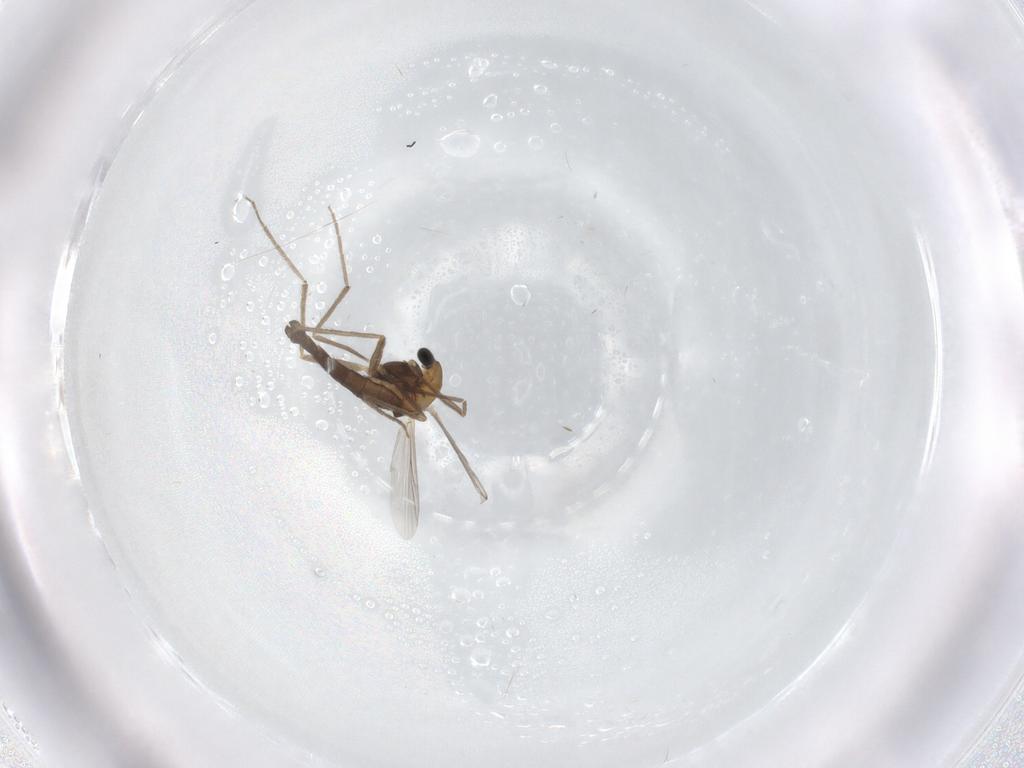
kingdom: Animalia
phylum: Arthropoda
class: Insecta
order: Diptera
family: Chironomidae
